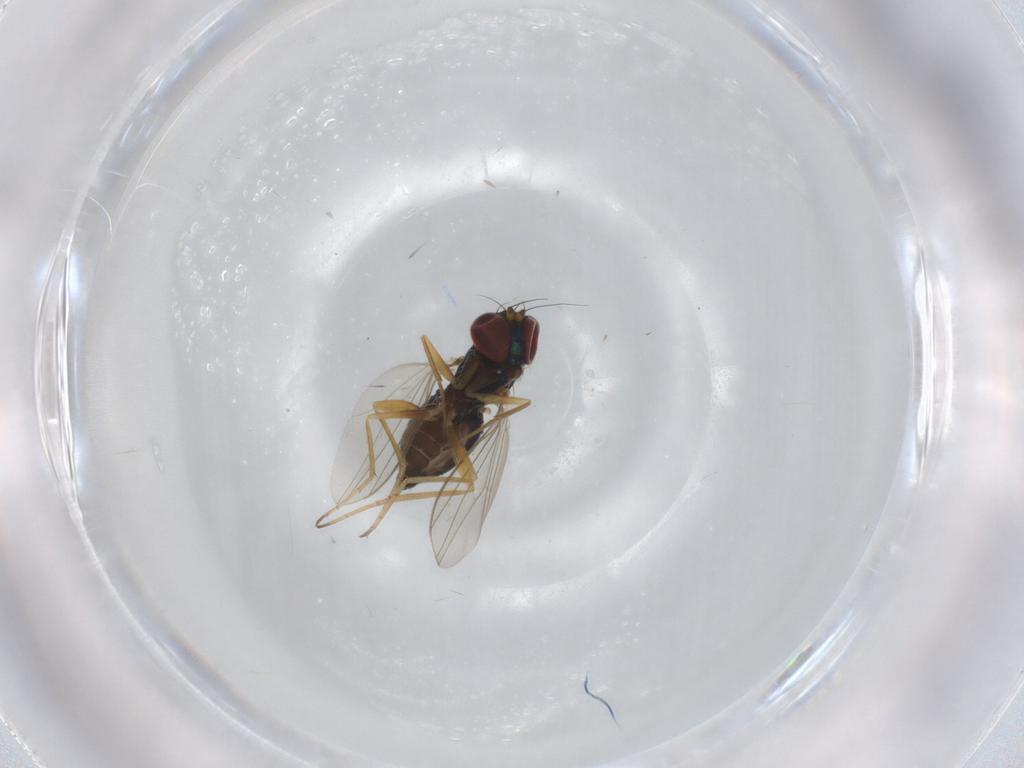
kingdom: Animalia
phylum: Arthropoda
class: Insecta
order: Diptera
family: Dolichopodidae
